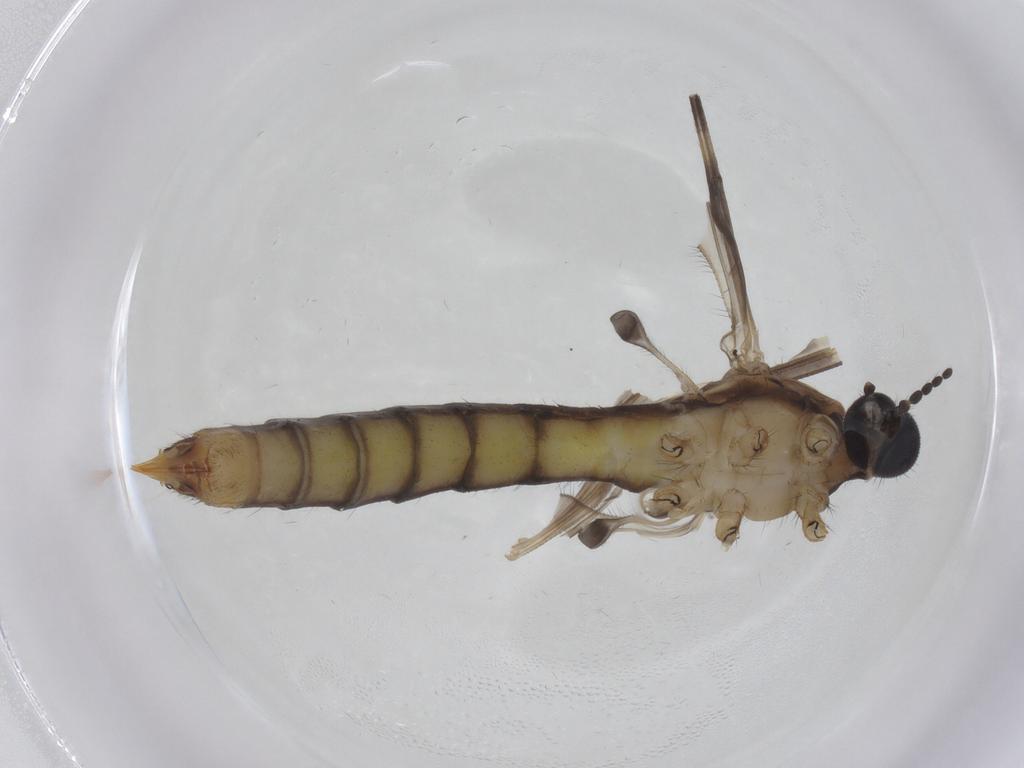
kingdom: Animalia
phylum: Arthropoda
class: Insecta
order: Diptera
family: Limoniidae
